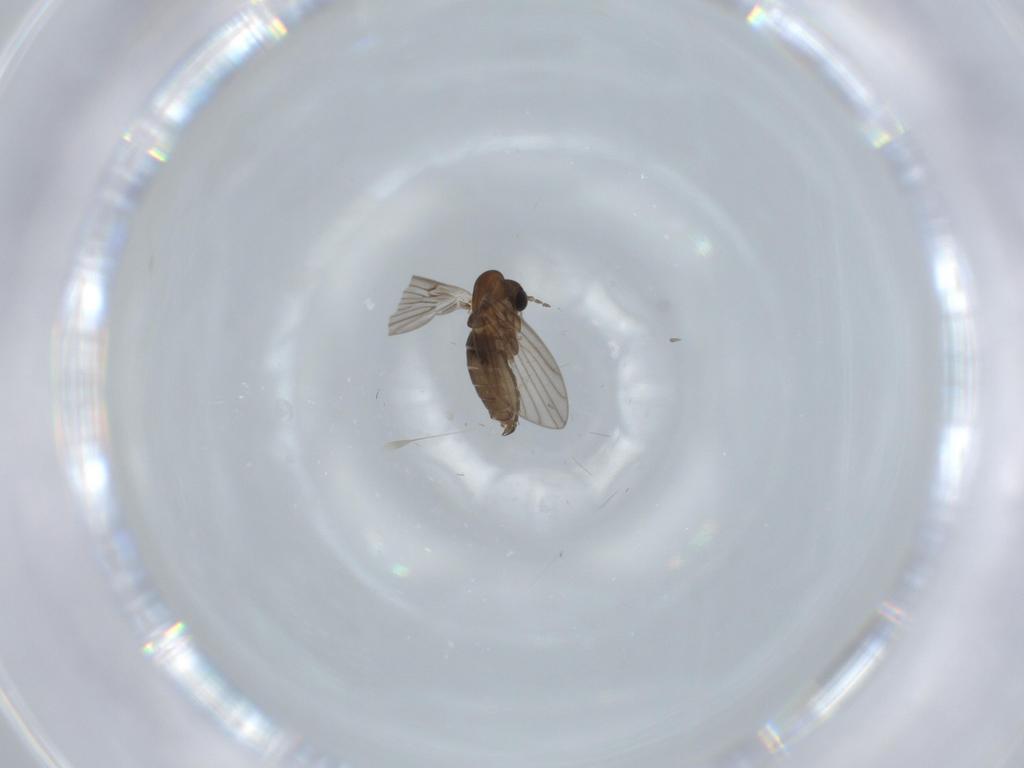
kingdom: Animalia
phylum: Arthropoda
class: Insecta
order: Diptera
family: Psychodidae
